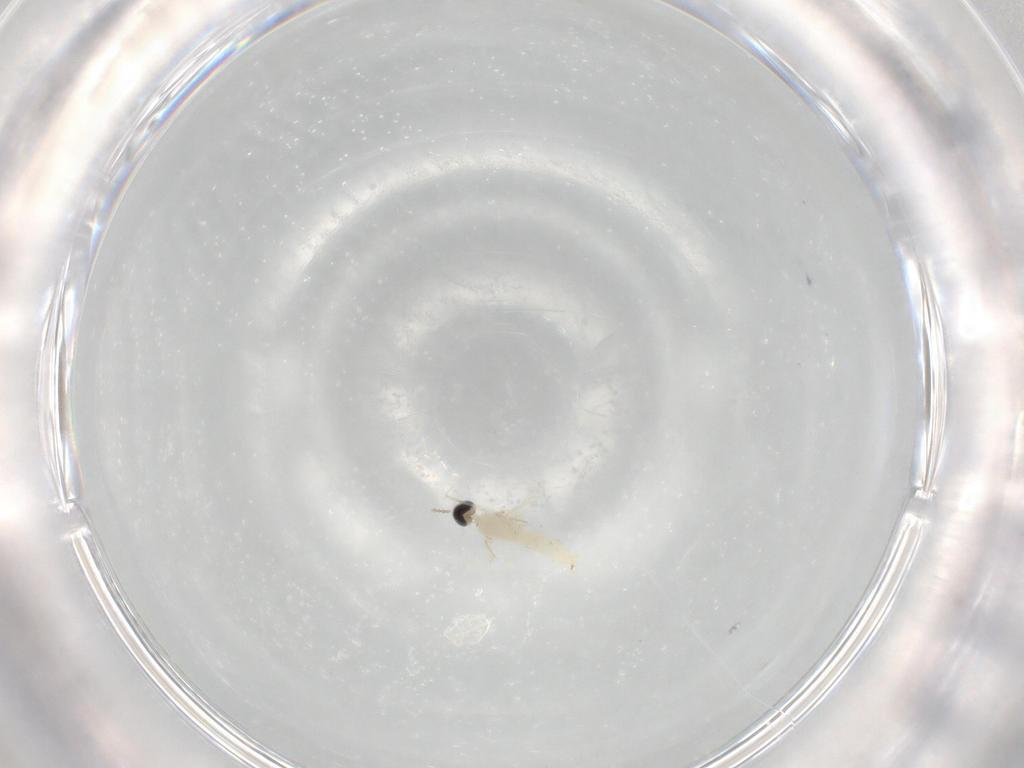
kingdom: Animalia
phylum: Arthropoda
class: Insecta
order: Diptera
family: Cecidomyiidae
